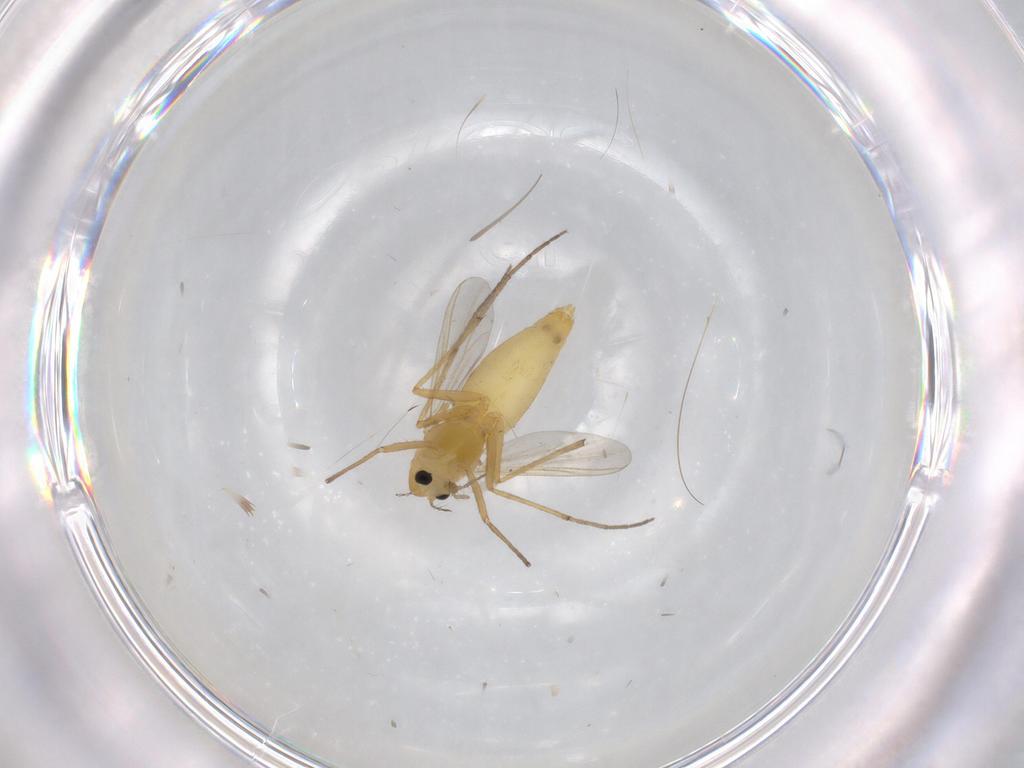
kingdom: Animalia
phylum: Arthropoda
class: Insecta
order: Diptera
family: Chironomidae
